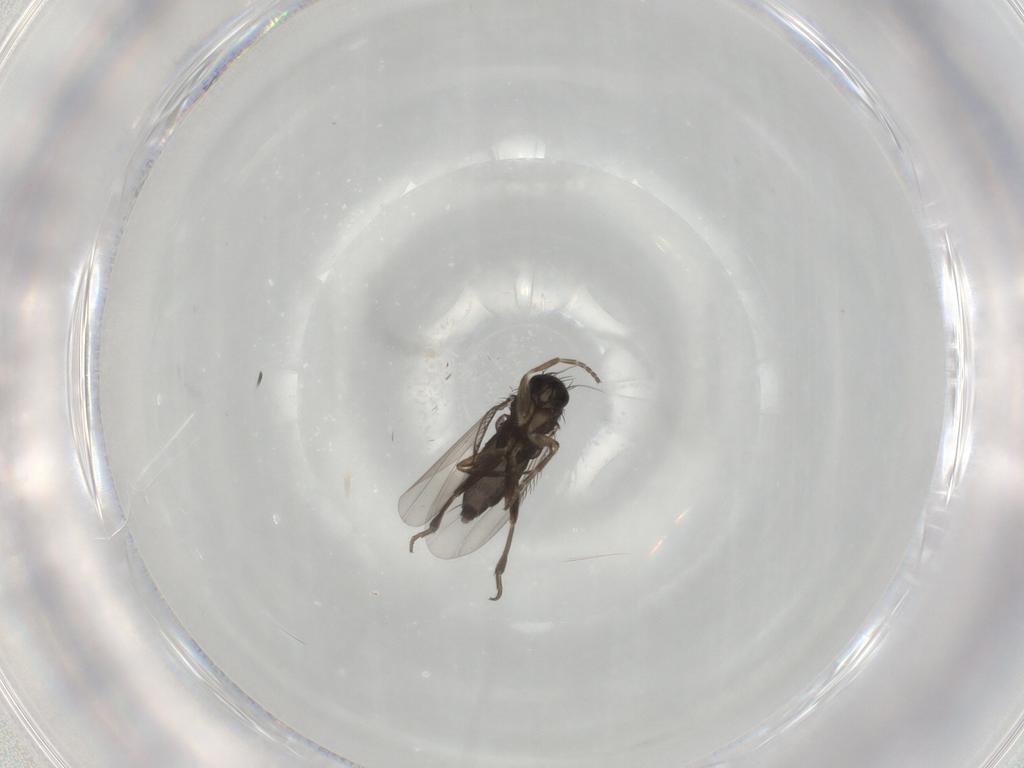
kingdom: Animalia
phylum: Arthropoda
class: Insecta
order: Diptera
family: Phoridae
